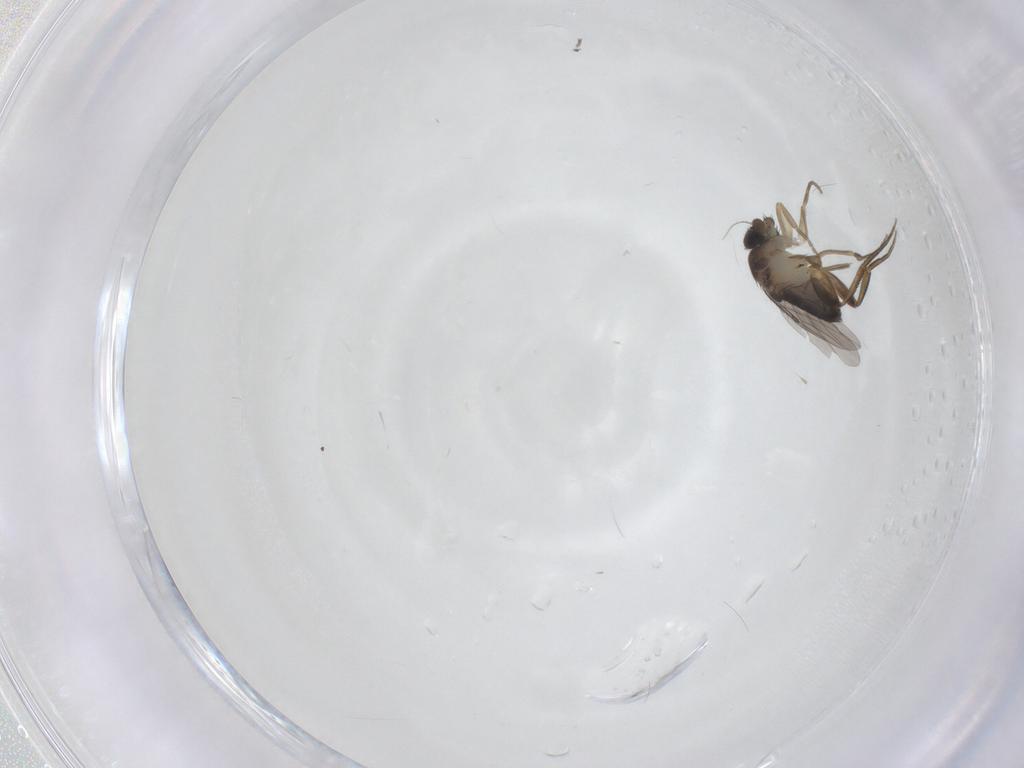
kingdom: Animalia
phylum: Arthropoda
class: Insecta
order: Diptera
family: Phoridae
